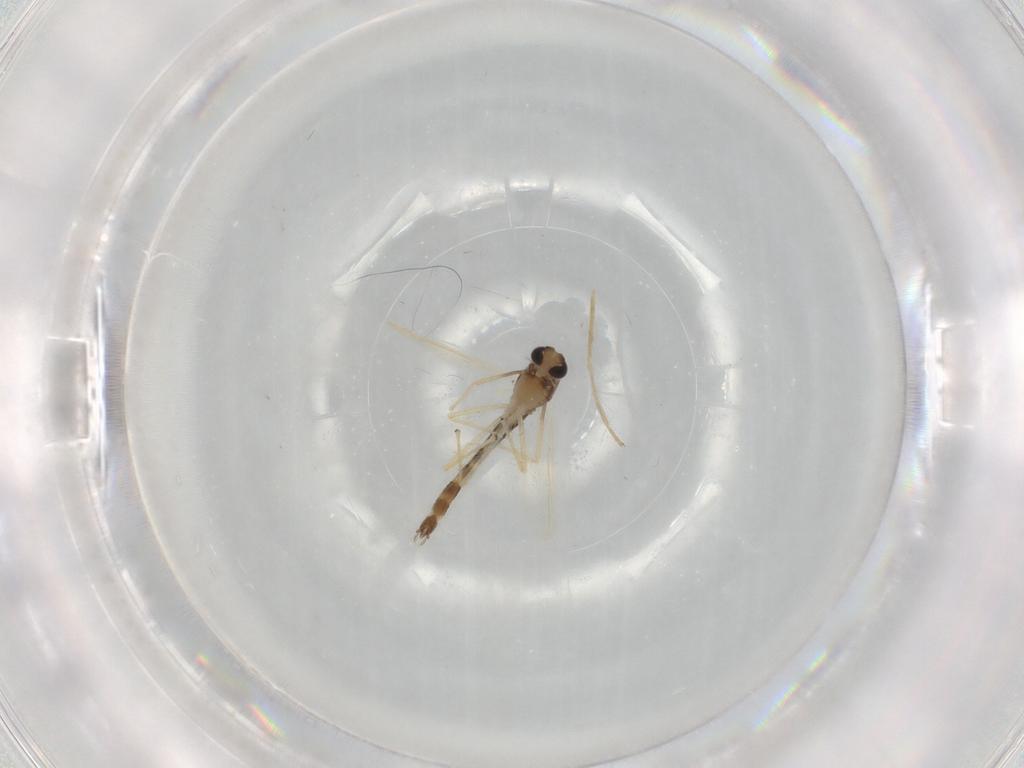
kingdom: Animalia
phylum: Arthropoda
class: Insecta
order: Diptera
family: Chironomidae
